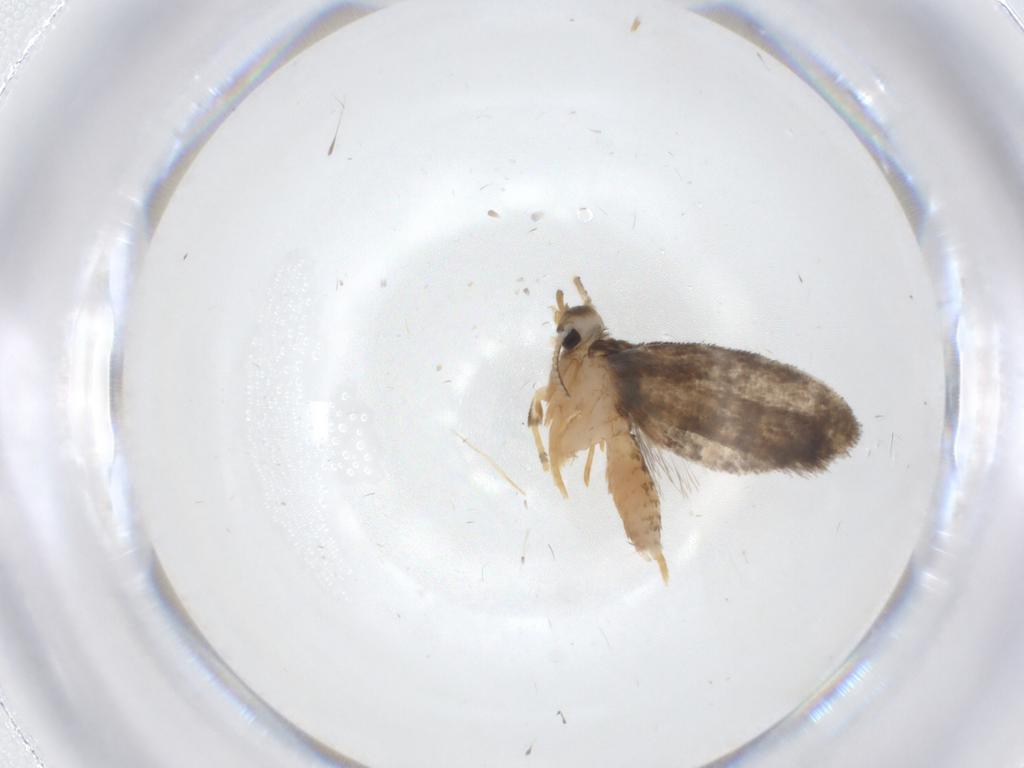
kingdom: Animalia
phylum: Arthropoda
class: Insecta
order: Lepidoptera
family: Psychidae
